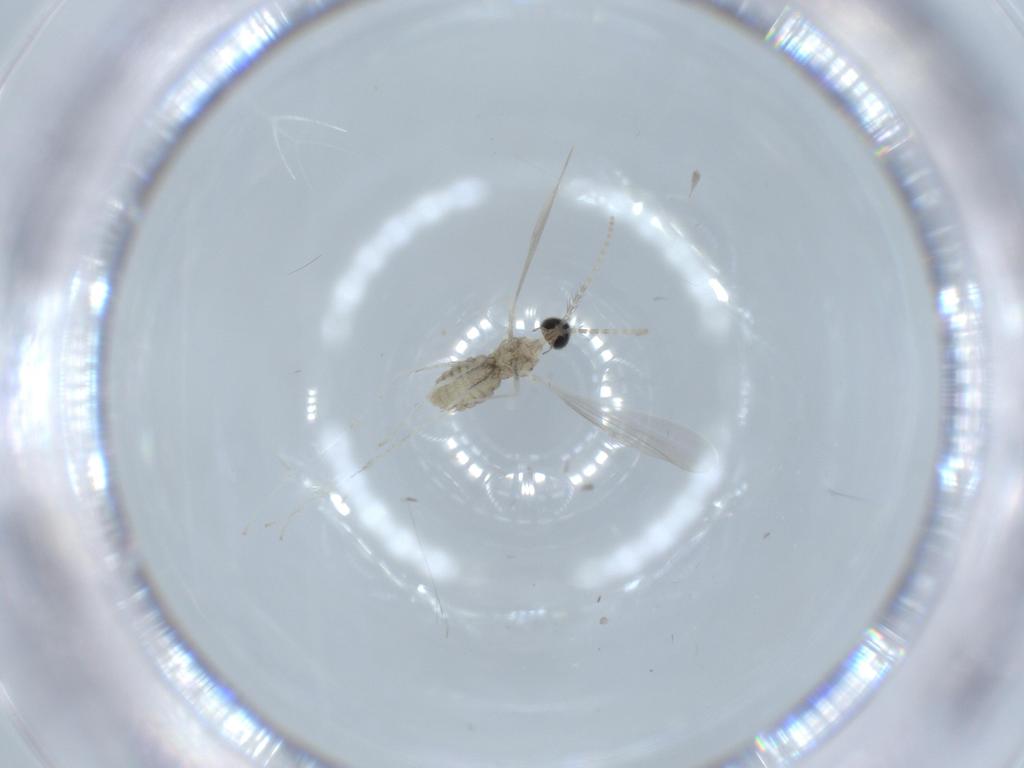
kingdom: Animalia
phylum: Arthropoda
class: Insecta
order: Diptera
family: Cecidomyiidae
